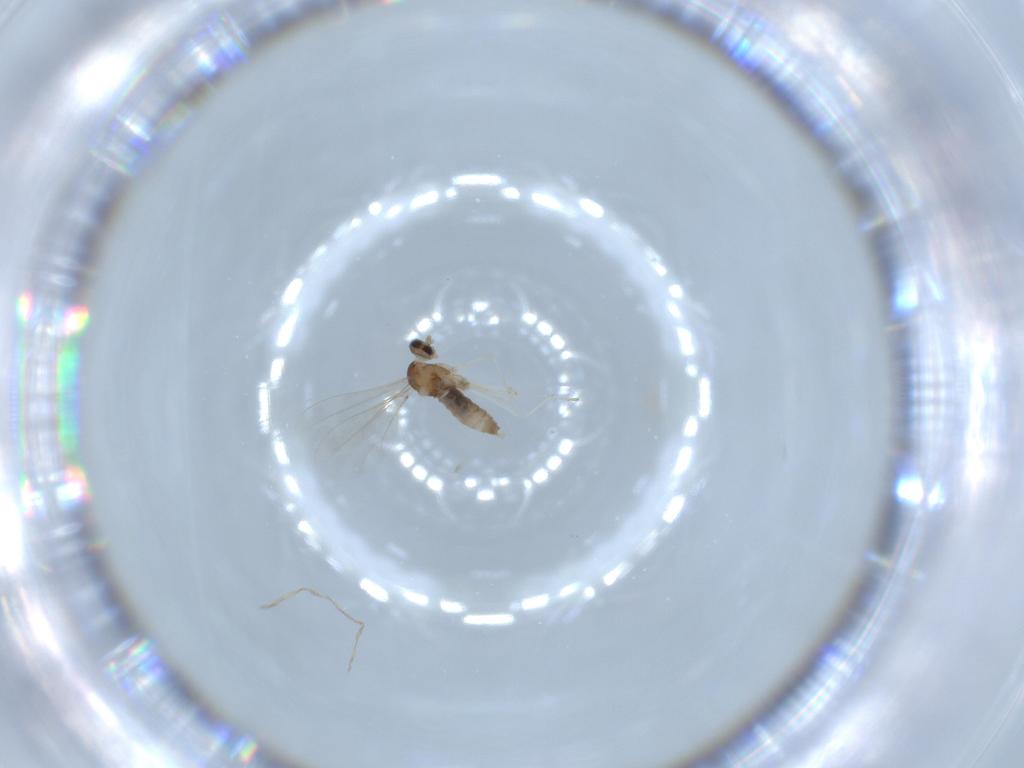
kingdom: Animalia
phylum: Arthropoda
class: Insecta
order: Diptera
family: Cecidomyiidae
